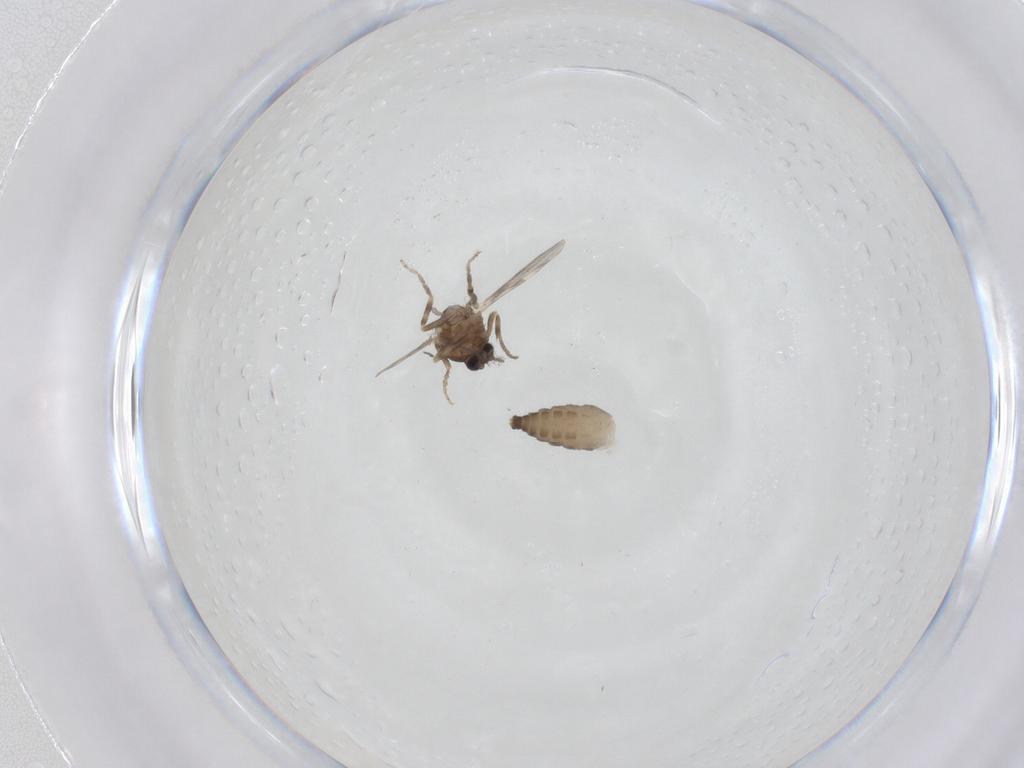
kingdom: Animalia
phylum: Arthropoda
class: Insecta
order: Diptera
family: Ceratopogonidae
